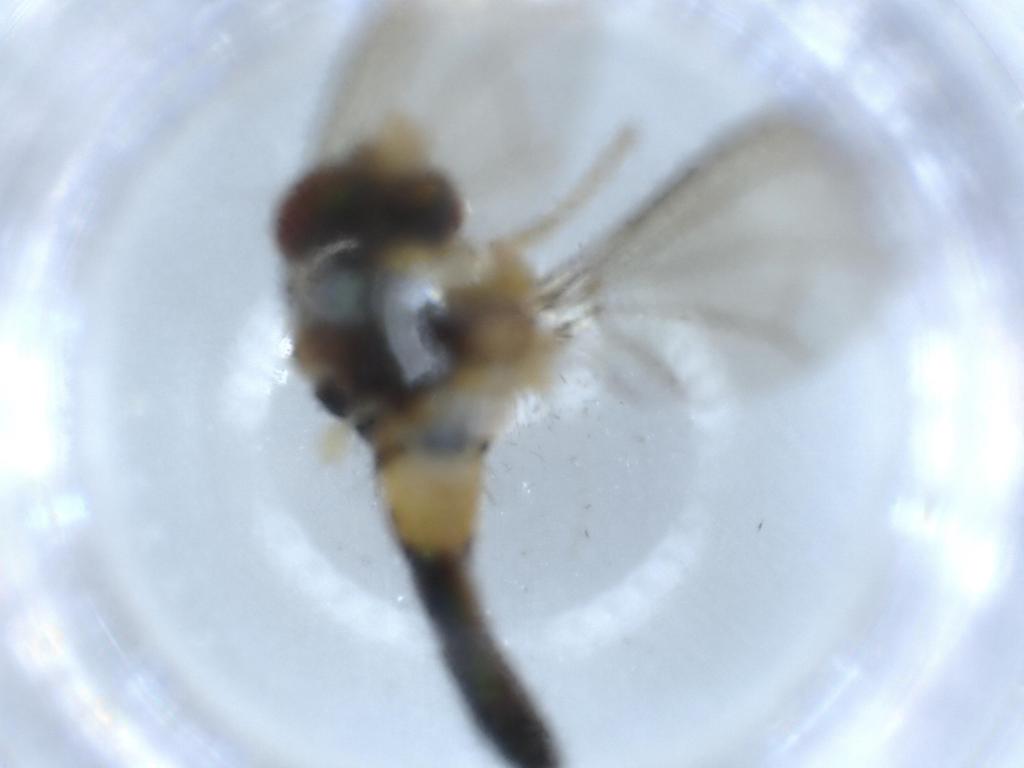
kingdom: Animalia
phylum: Arthropoda
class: Insecta
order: Diptera
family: Dolichopodidae
